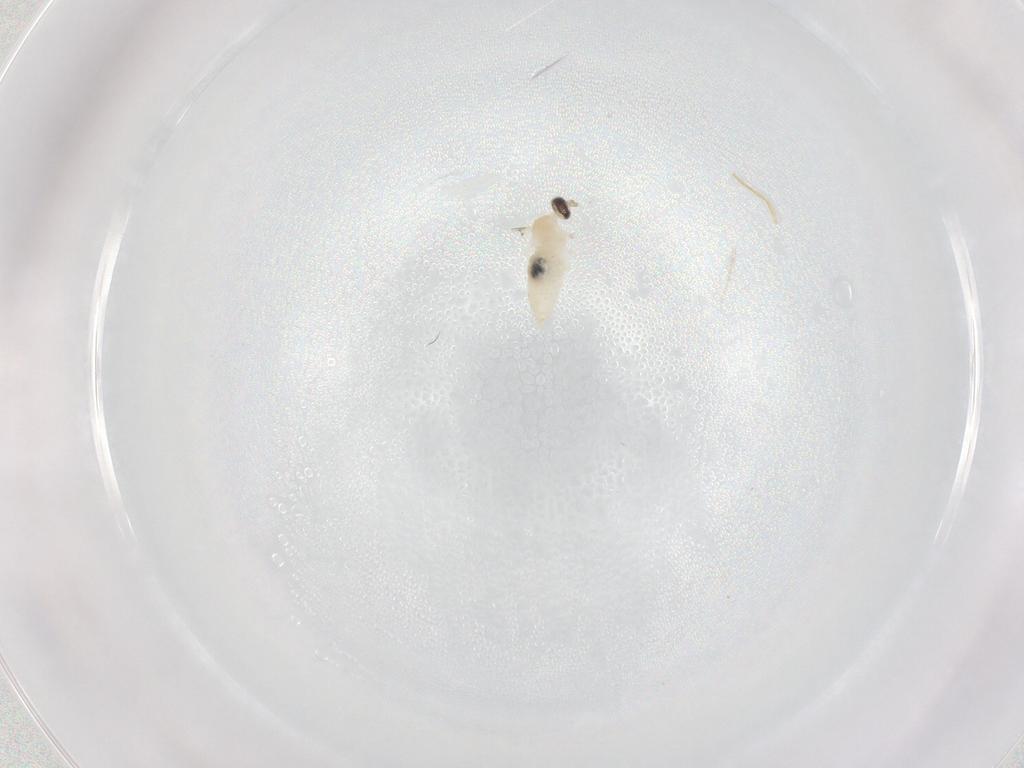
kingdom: Animalia
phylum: Arthropoda
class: Insecta
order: Diptera
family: Cecidomyiidae
